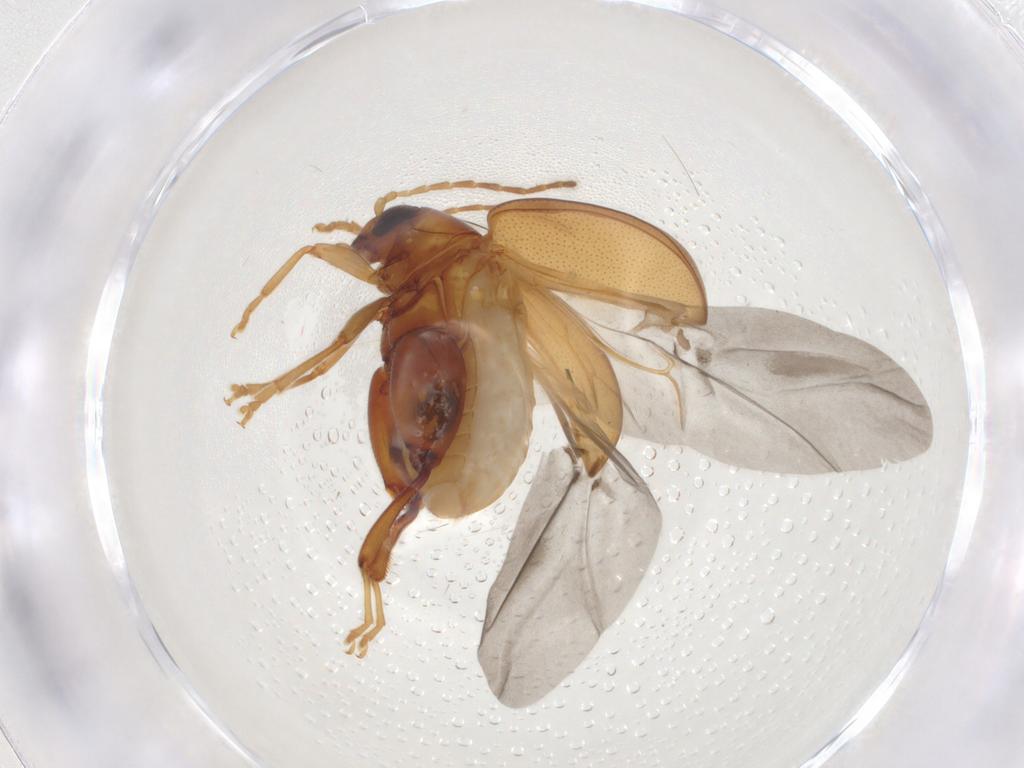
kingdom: Animalia
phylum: Arthropoda
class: Insecta
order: Coleoptera
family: Chrysomelidae
